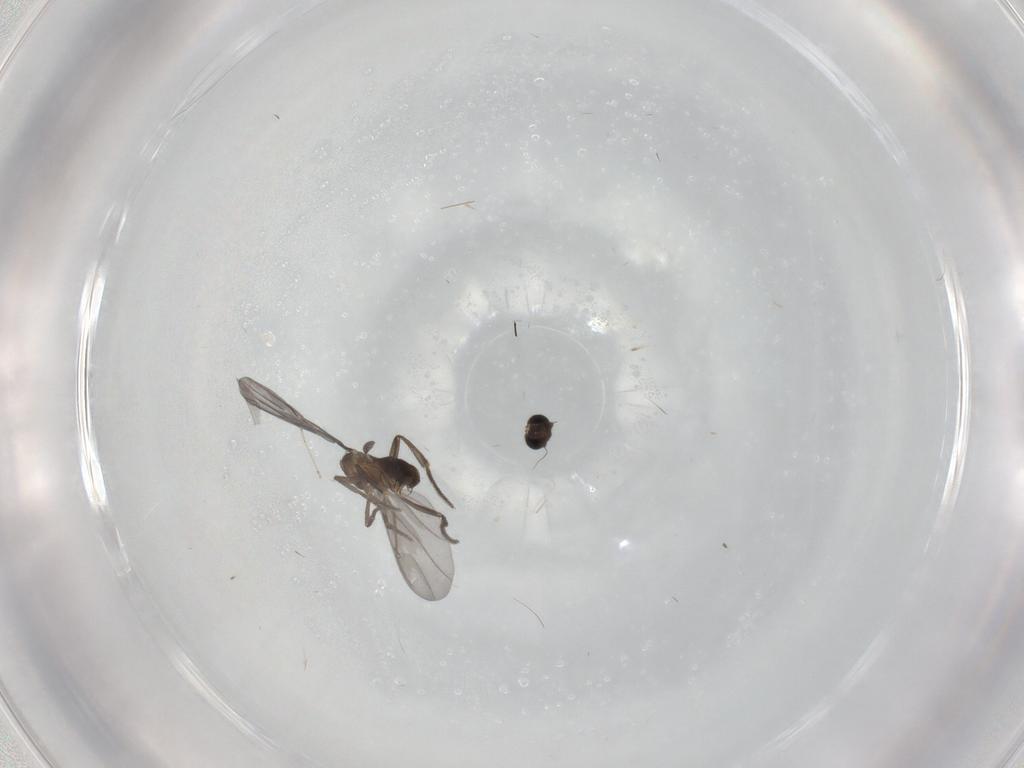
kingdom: Animalia
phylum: Arthropoda
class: Insecta
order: Diptera
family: Phoridae
